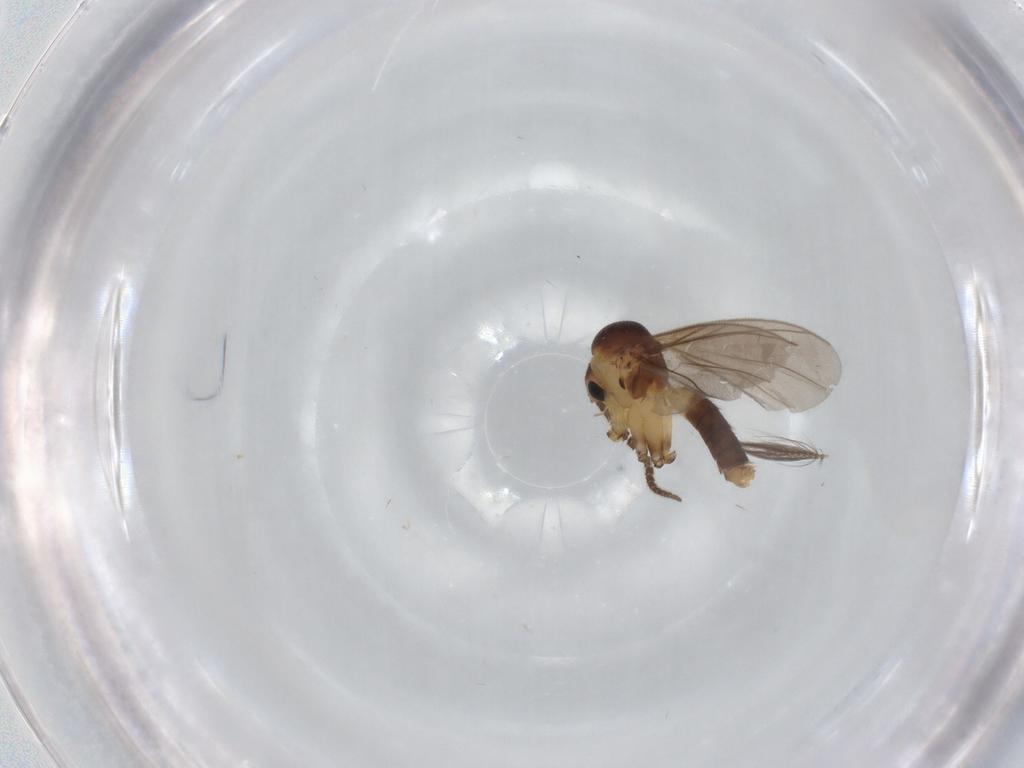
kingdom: Animalia
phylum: Arthropoda
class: Insecta
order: Diptera
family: Mycetophilidae
